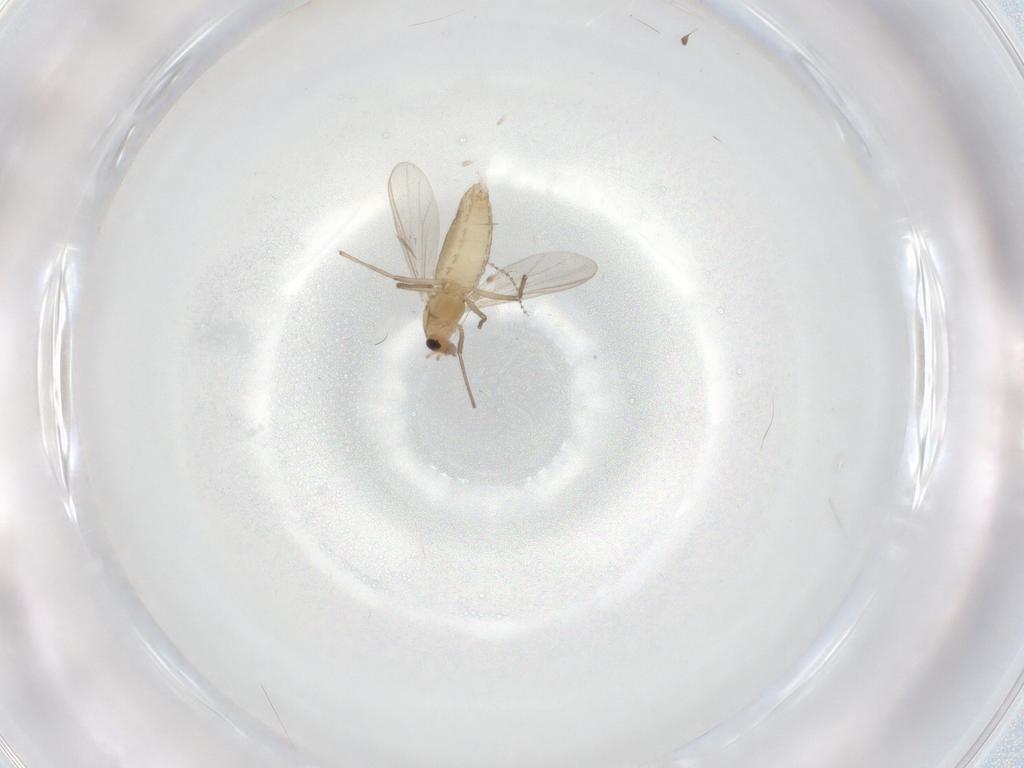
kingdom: Animalia
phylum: Arthropoda
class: Insecta
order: Diptera
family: Chironomidae
